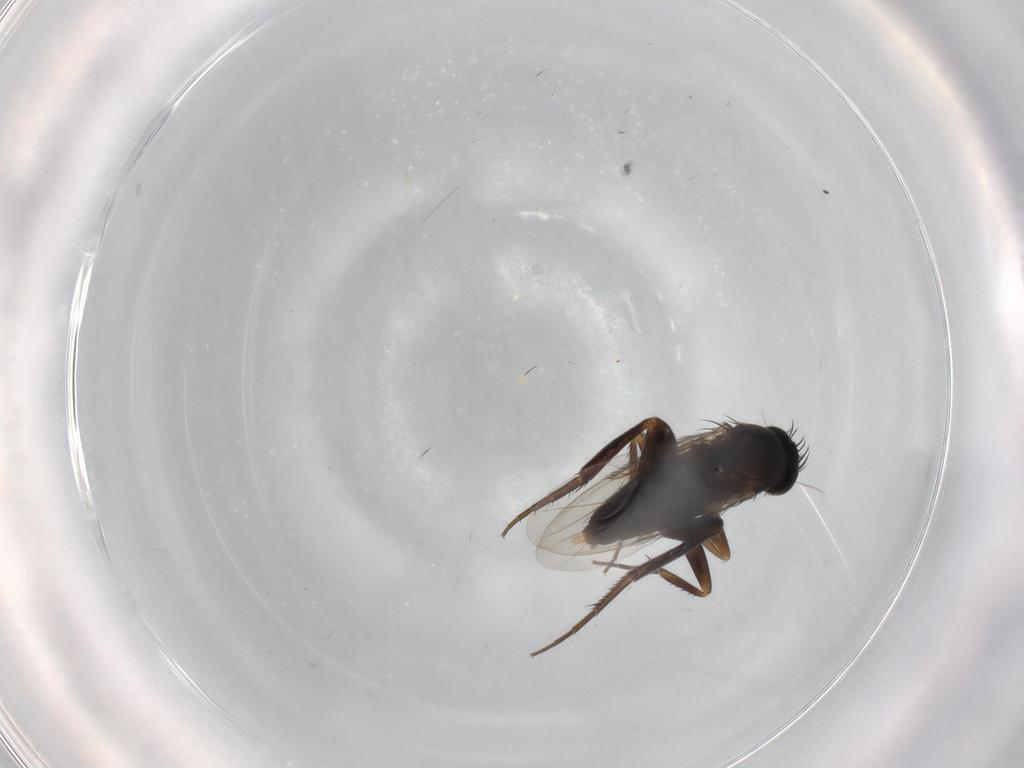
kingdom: Animalia
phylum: Arthropoda
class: Insecta
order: Diptera
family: Phoridae
